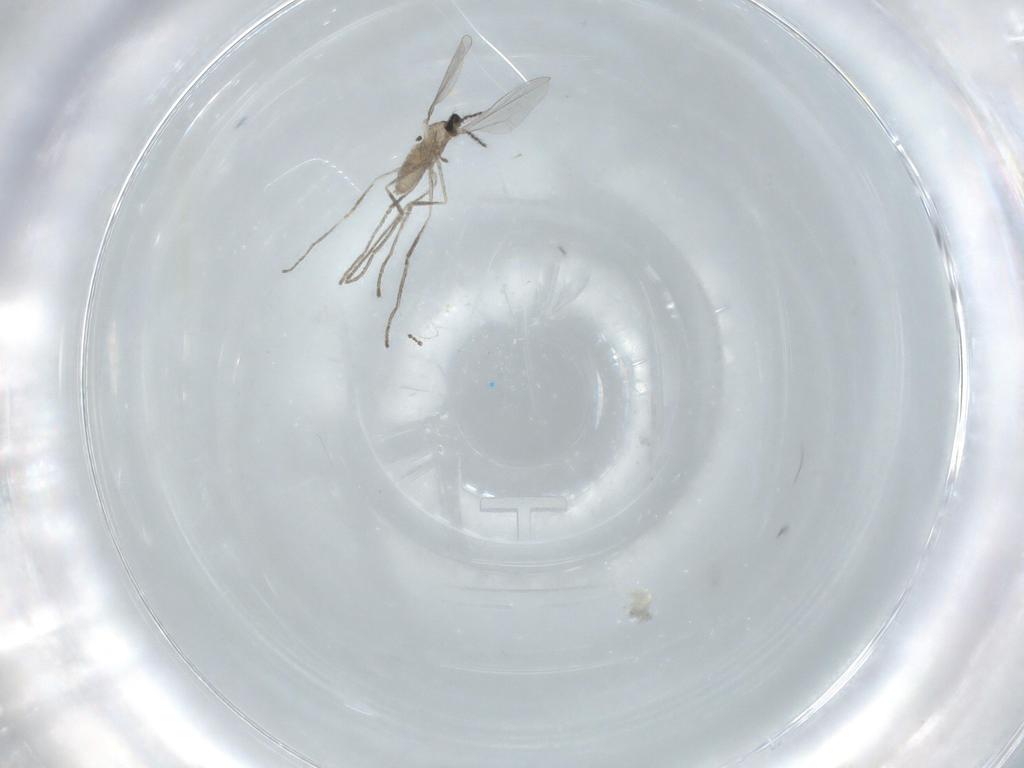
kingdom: Animalia
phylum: Arthropoda
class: Insecta
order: Diptera
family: Cecidomyiidae
